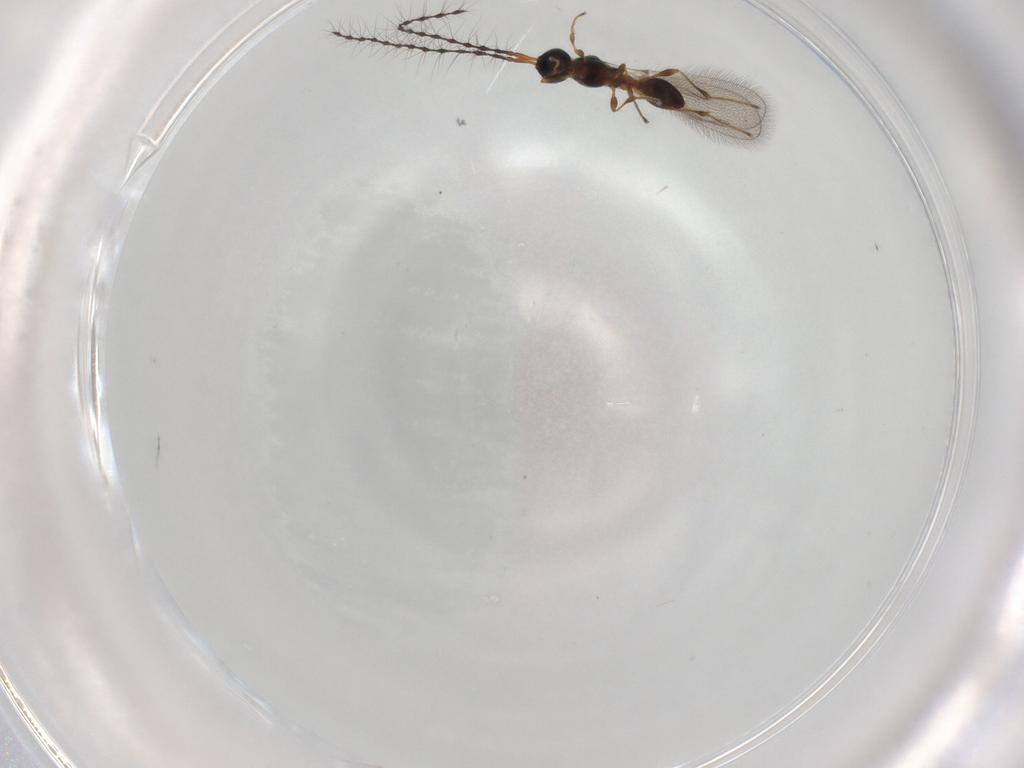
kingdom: Animalia
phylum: Arthropoda
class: Insecta
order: Hymenoptera
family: Diapriidae
